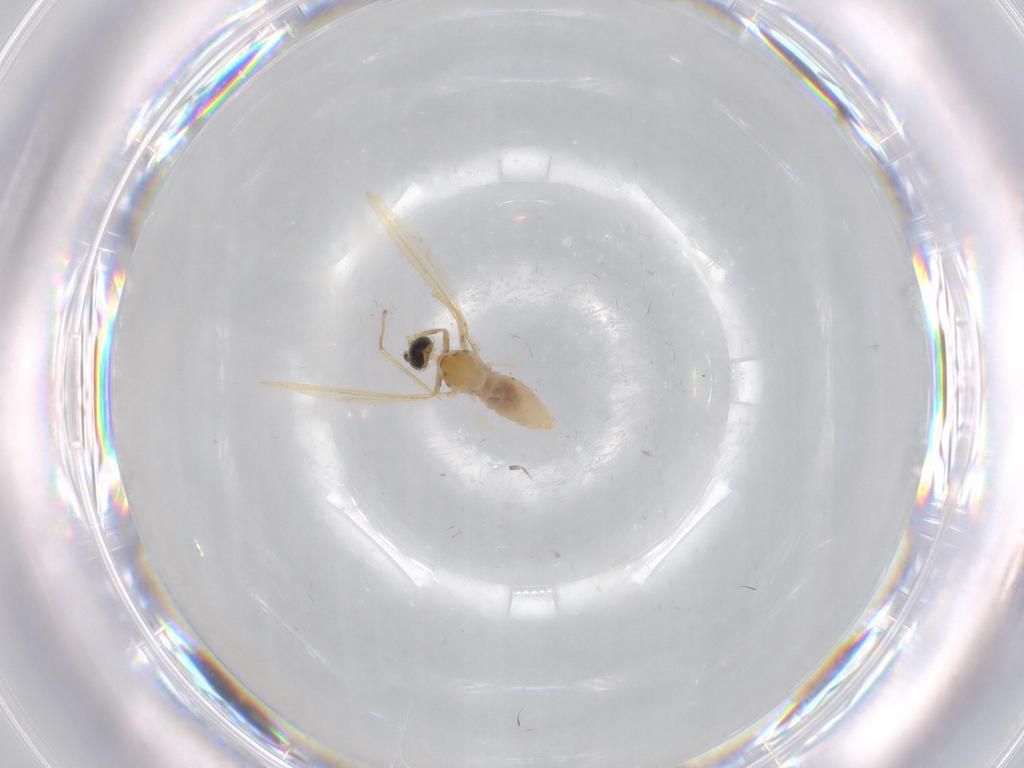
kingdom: Animalia
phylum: Arthropoda
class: Insecta
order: Diptera
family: Cecidomyiidae
